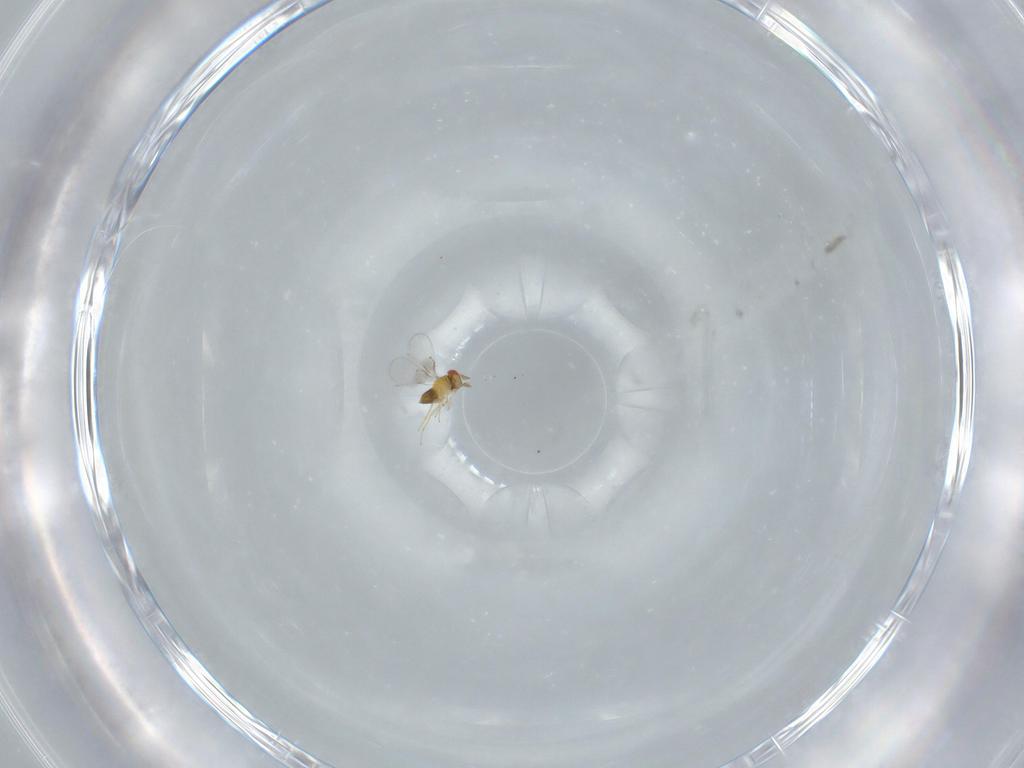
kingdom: Animalia
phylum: Arthropoda
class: Insecta
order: Hymenoptera
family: Trichogrammatidae
